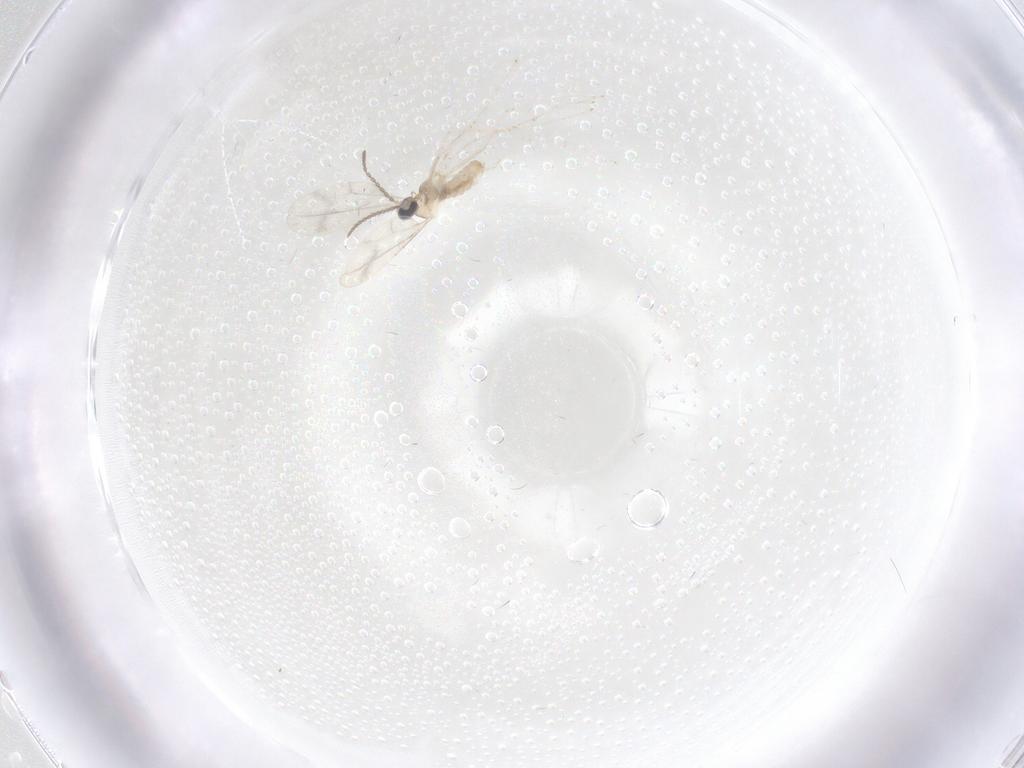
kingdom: Animalia
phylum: Arthropoda
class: Insecta
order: Diptera
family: Cecidomyiidae
